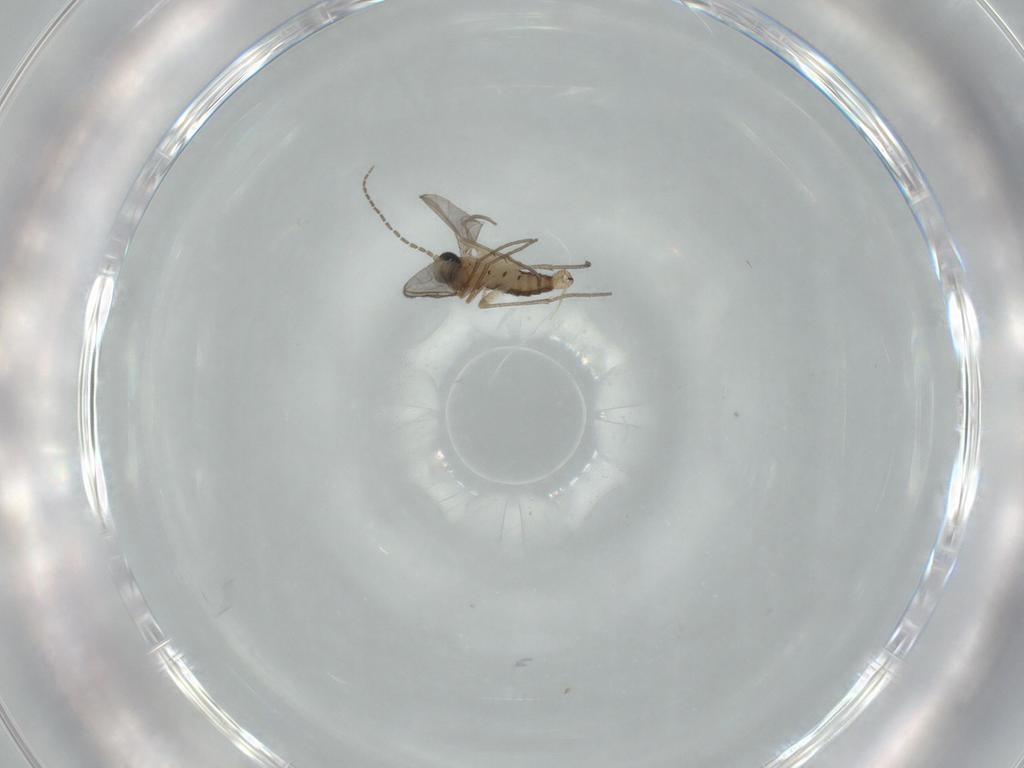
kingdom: Animalia
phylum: Arthropoda
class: Insecta
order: Diptera
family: Sciaridae
